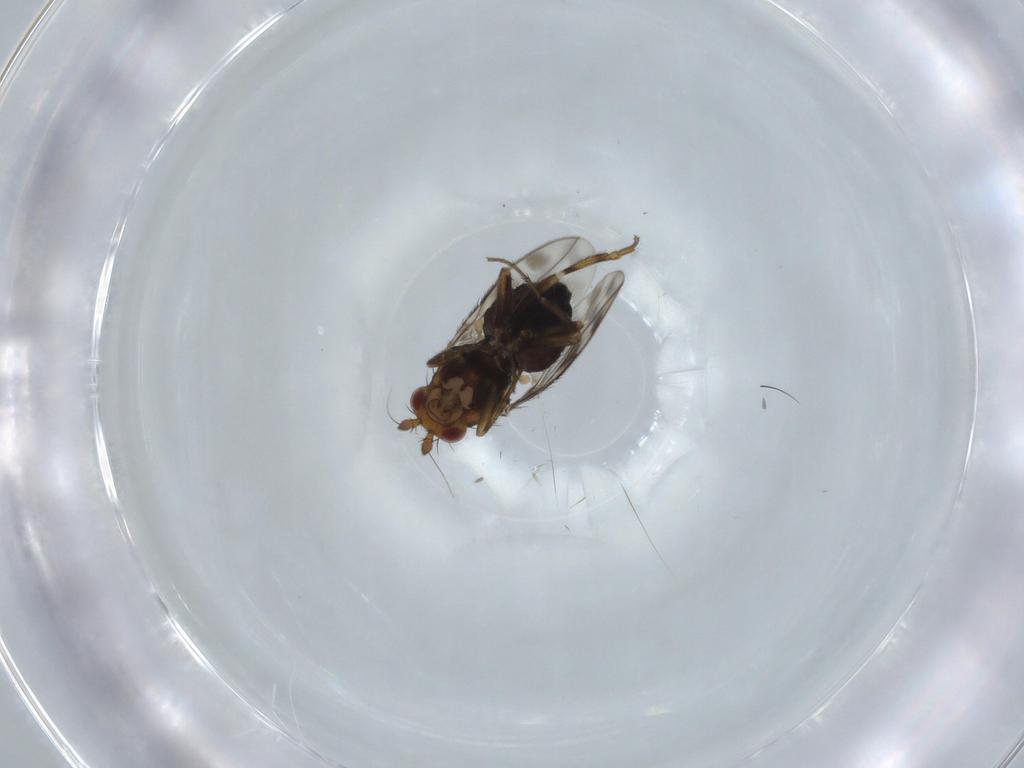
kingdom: Animalia
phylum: Arthropoda
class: Insecta
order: Diptera
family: Sphaeroceridae
